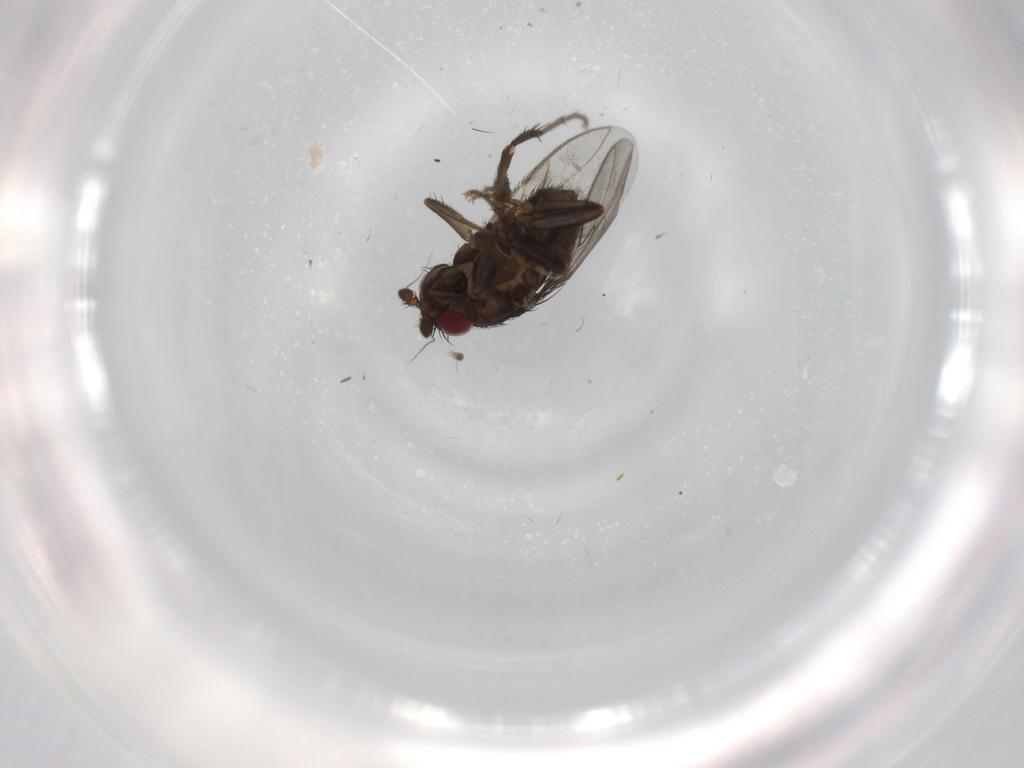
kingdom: Animalia
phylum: Arthropoda
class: Insecta
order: Diptera
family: Sphaeroceridae
